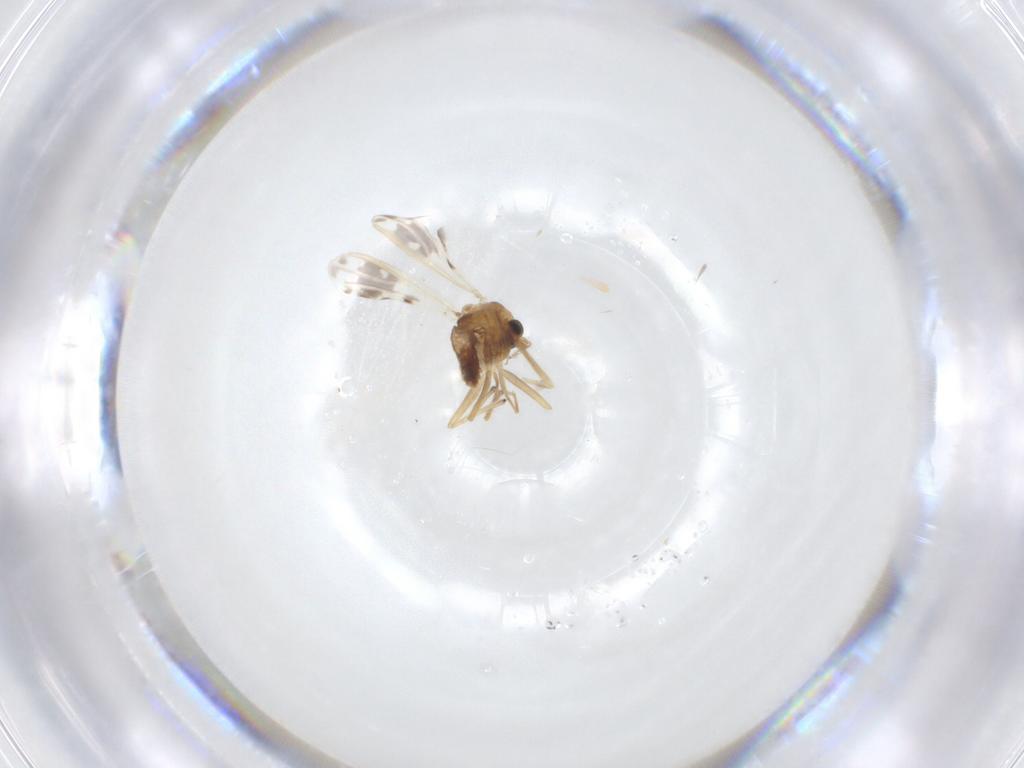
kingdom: Animalia
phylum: Arthropoda
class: Insecta
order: Diptera
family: Chironomidae
